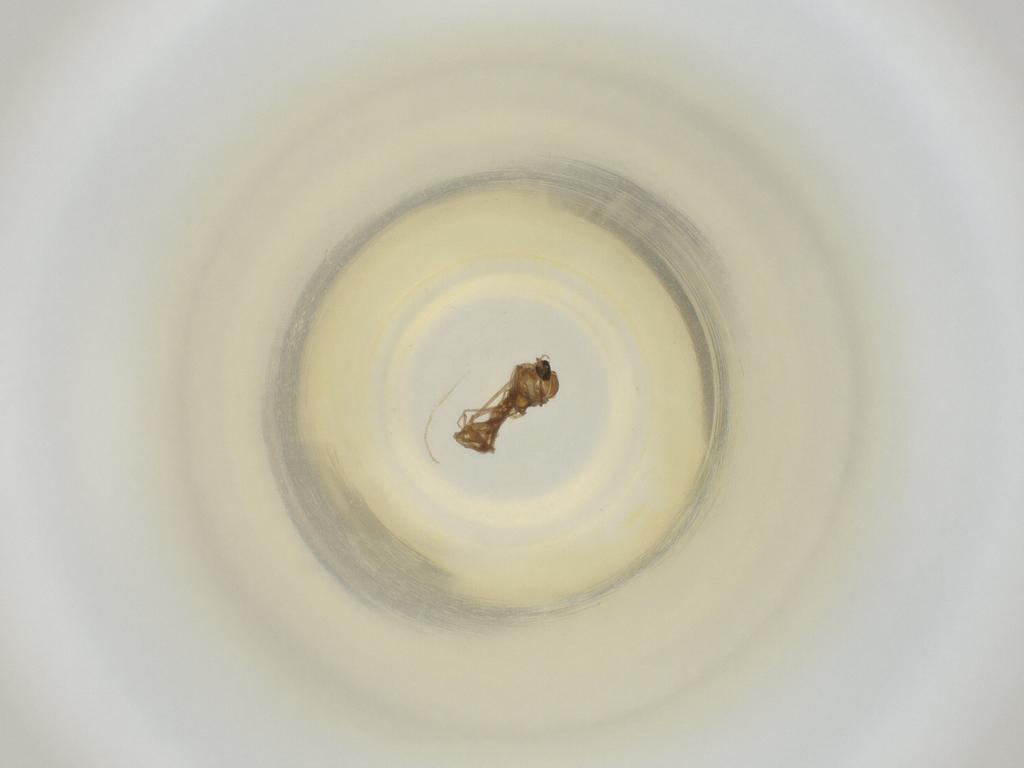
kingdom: Animalia
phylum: Arthropoda
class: Insecta
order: Diptera
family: Cecidomyiidae
